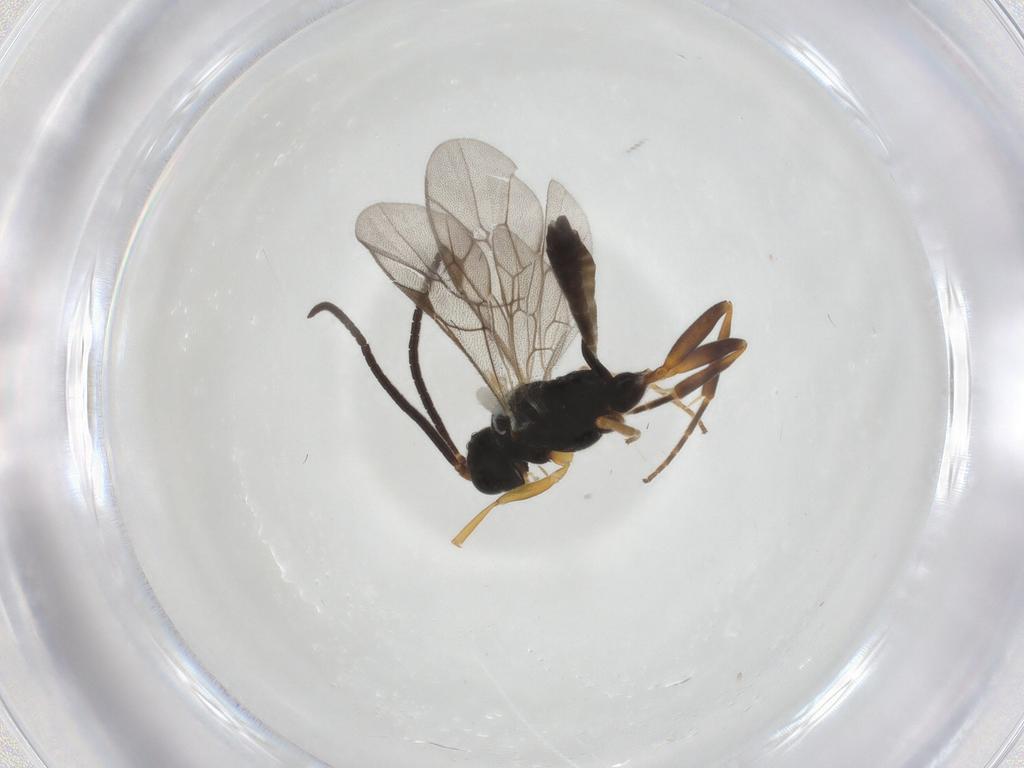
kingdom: Animalia
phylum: Arthropoda
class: Insecta
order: Hymenoptera
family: Ichneumonidae
